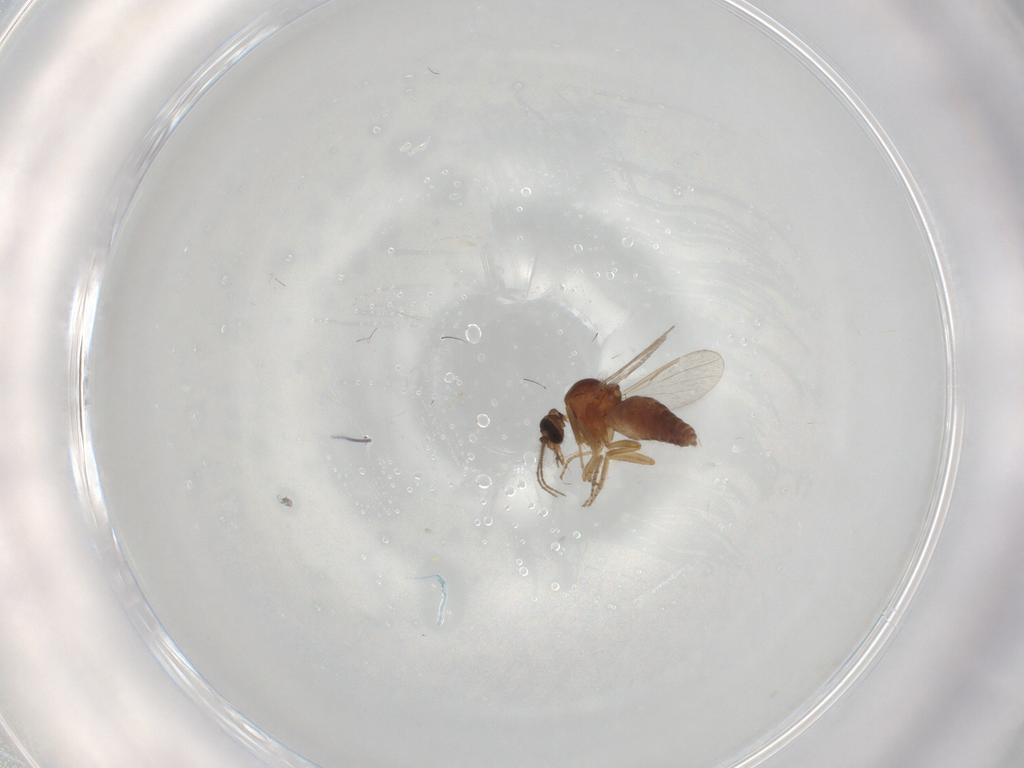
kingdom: Animalia
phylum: Arthropoda
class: Insecta
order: Diptera
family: Ceratopogonidae
